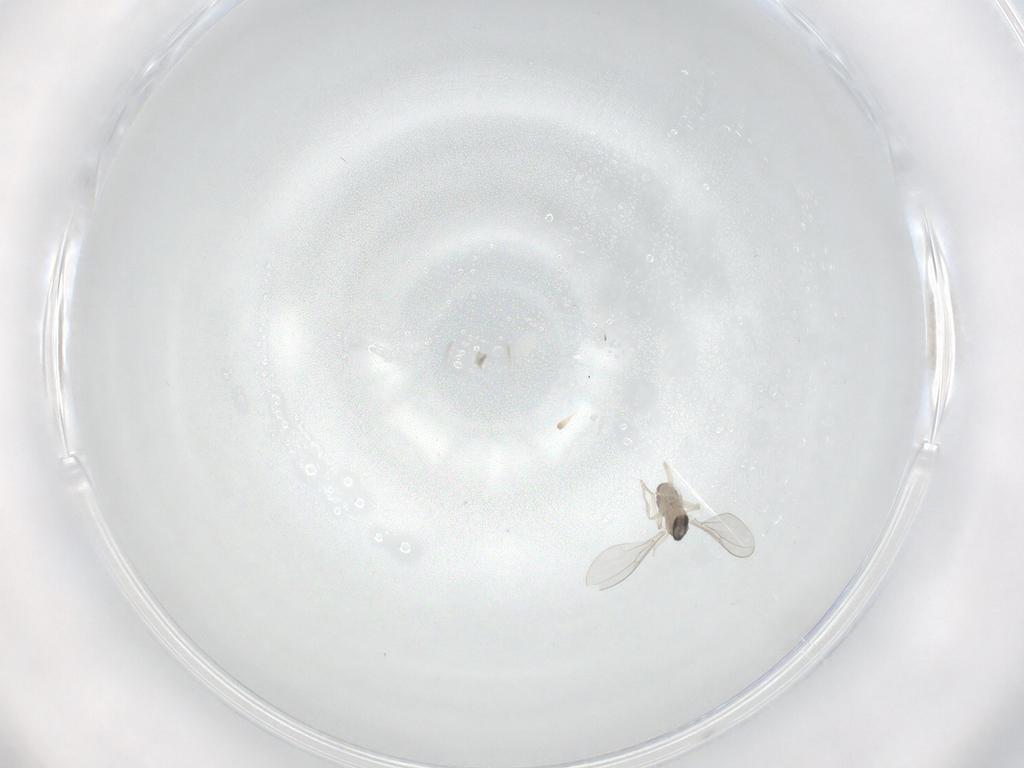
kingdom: Animalia
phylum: Arthropoda
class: Insecta
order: Diptera
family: Cecidomyiidae
